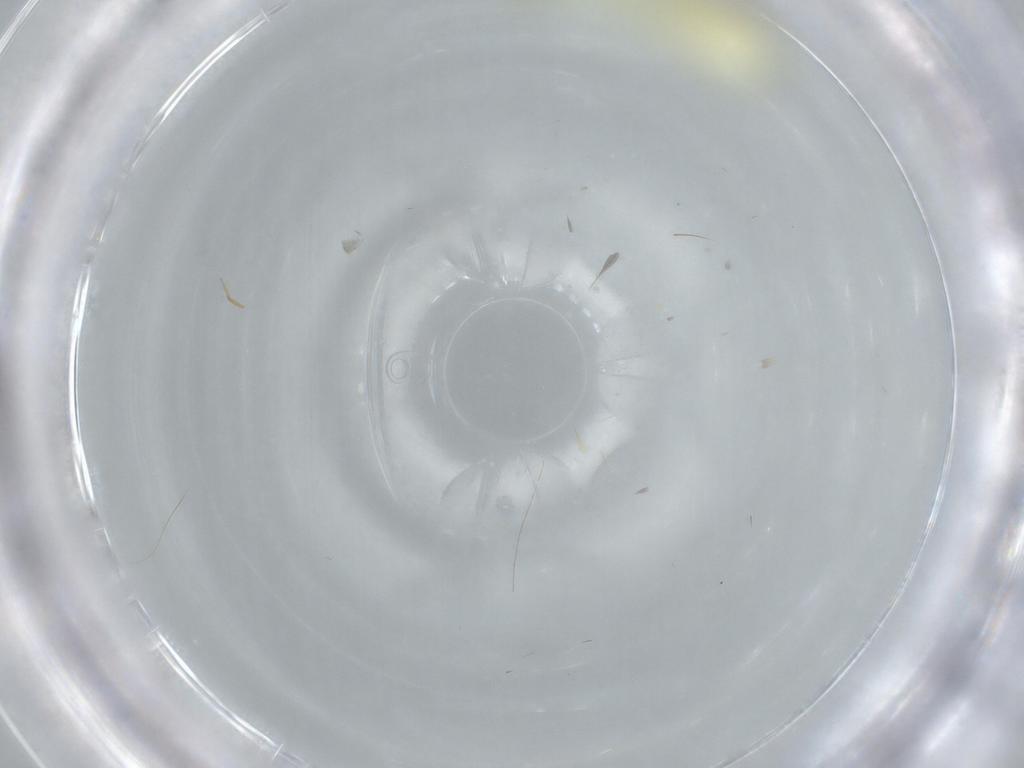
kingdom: Animalia
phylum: Arthropoda
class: Insecta
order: Hemiptera
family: Cicadellidae
